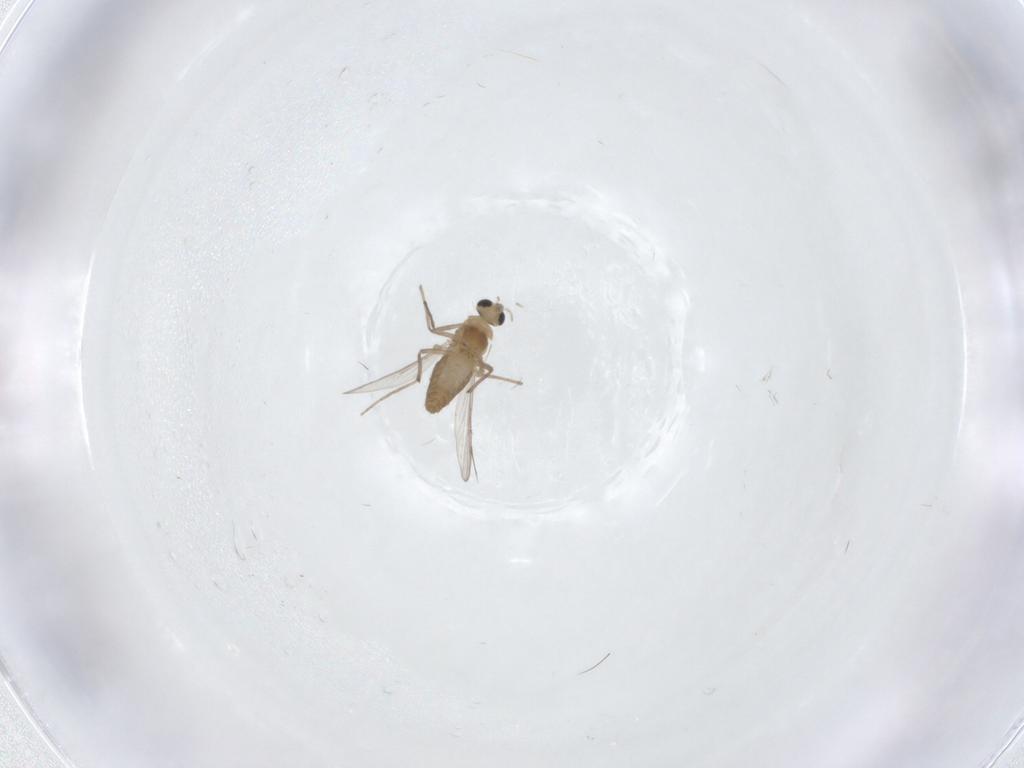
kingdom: Animalia
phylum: Arthropoda
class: Insecta
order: Diptera
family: Chironomidae
